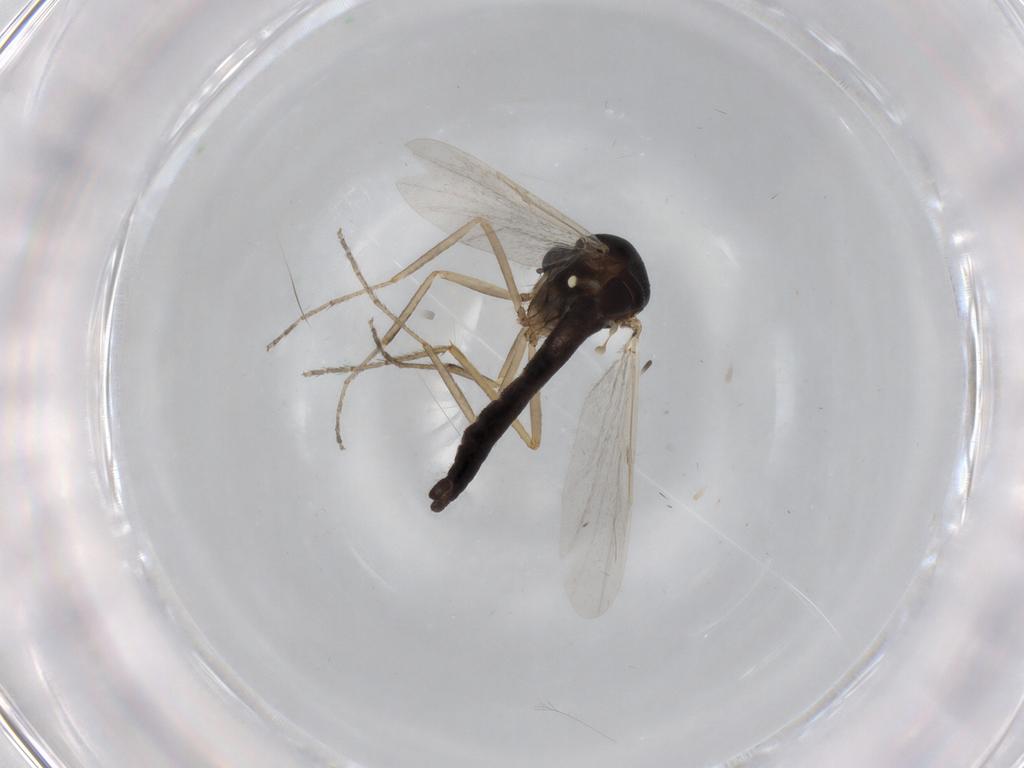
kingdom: Animalia
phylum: Arthropoda
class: Insecta
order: Diptera
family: Ceratopogonidae
